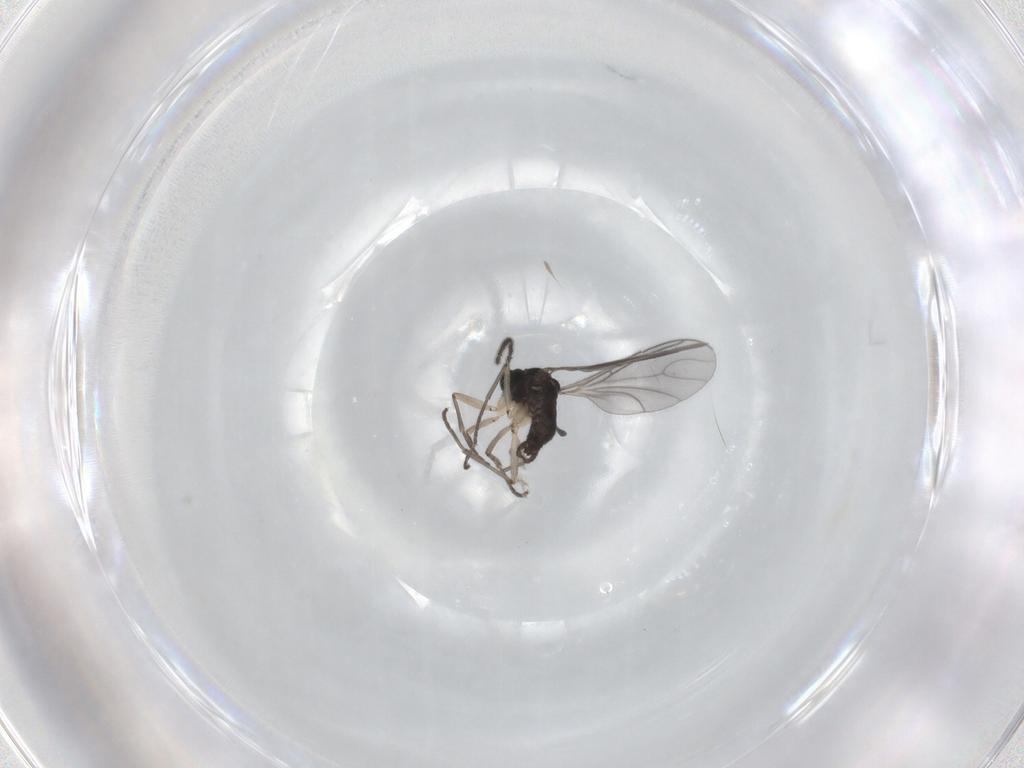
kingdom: Animalia
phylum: Arthropoda
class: Insecta
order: Diptera
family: Sciaridae
